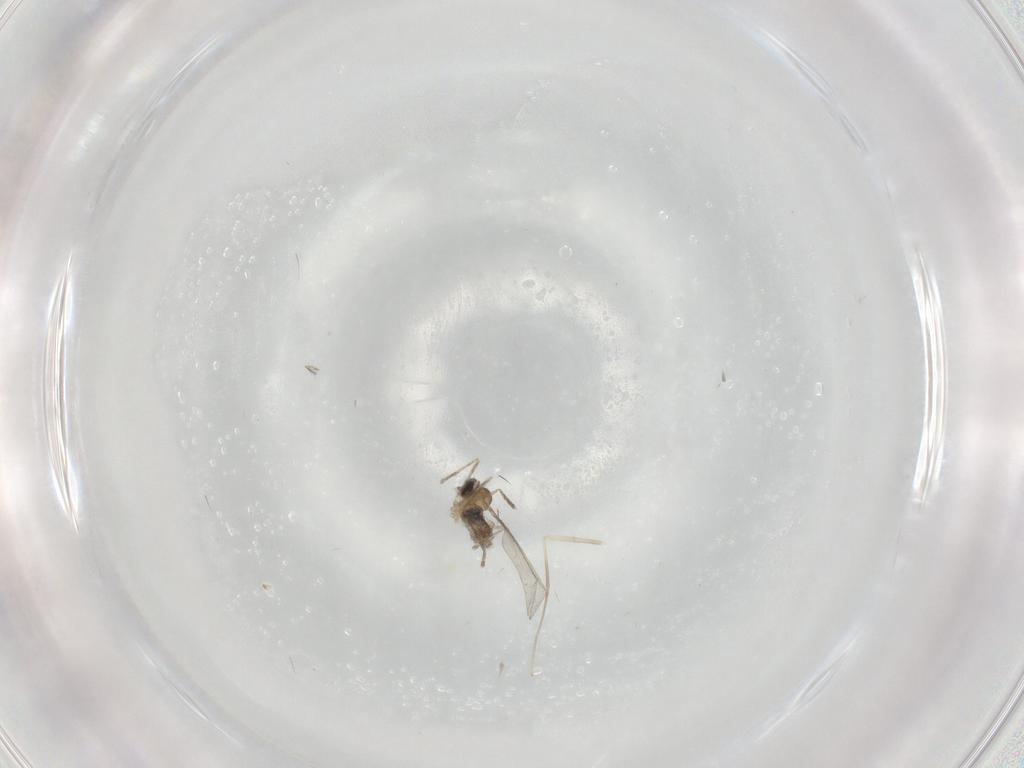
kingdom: Animalia
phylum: Arthropoda
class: Insecta
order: Diptera
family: Cecidomyiidae
